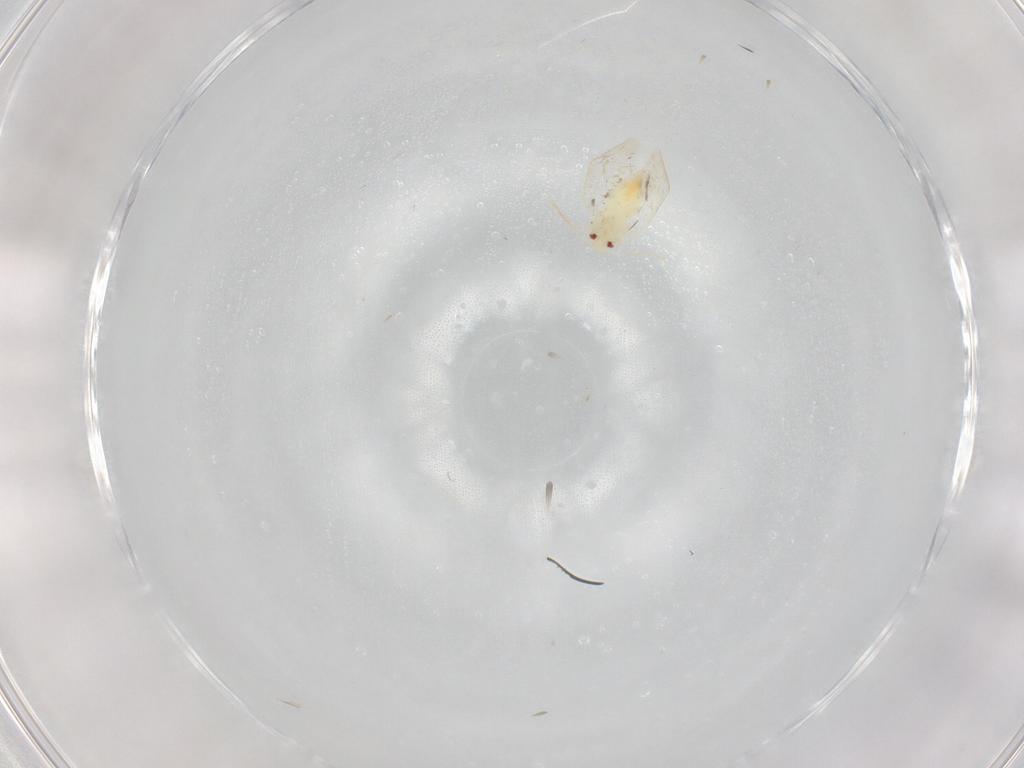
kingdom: Animalia
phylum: Arthropoda
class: Insecta
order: Hemiptera
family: Aleyrodidae
